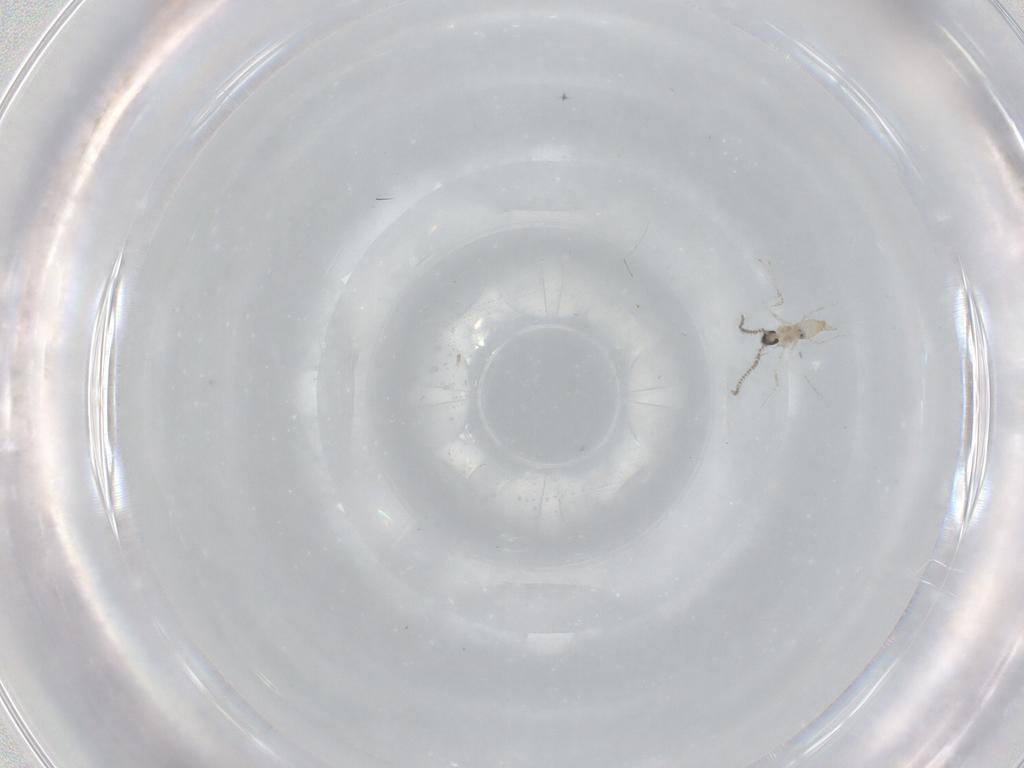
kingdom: Animalia
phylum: Arthropoda
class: Insecta
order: Diptera
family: Cecidomyiidae
